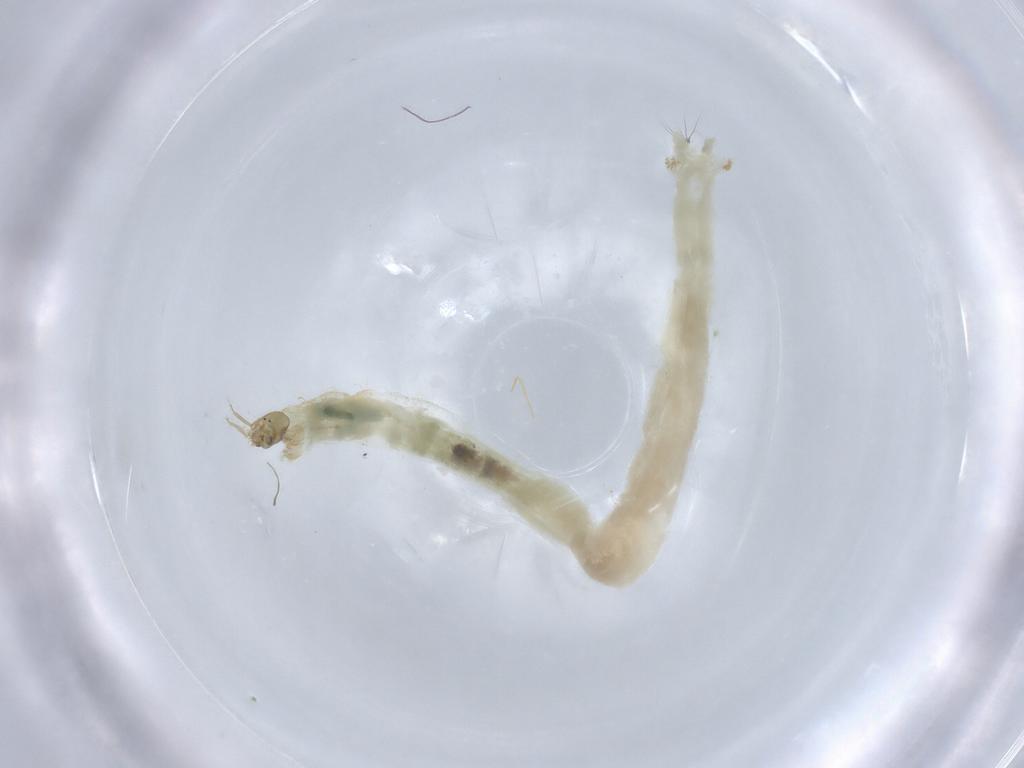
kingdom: Animalia
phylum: Arthropoda
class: Insecta
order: Diptera
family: Chironomidae
